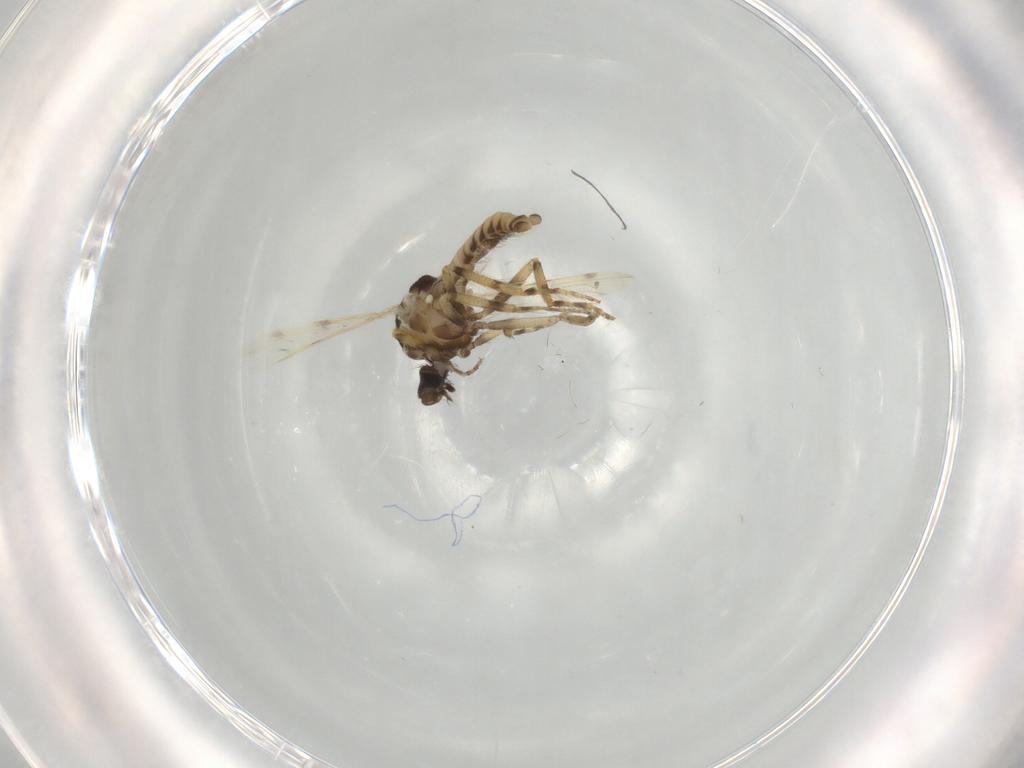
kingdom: Animalia
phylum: Arthropoda
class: Insecta
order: Diptera
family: Ceratopogonidae
